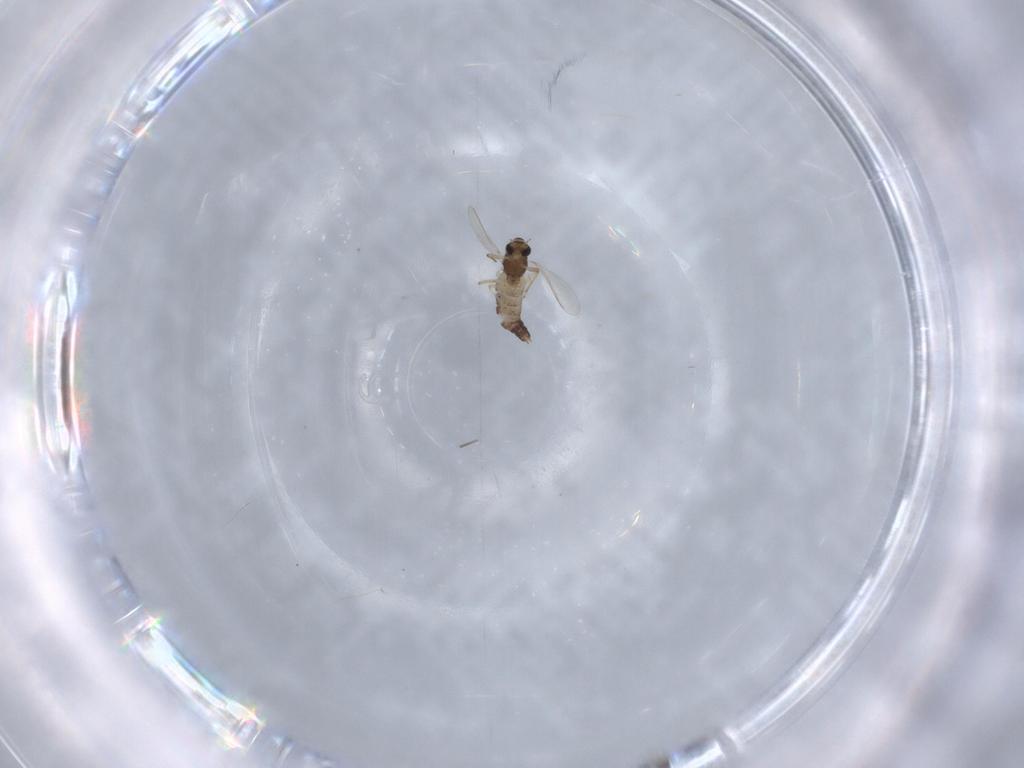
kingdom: Animalia
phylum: Arthropoda
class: Insecta
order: Diptera
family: Chironomidae
